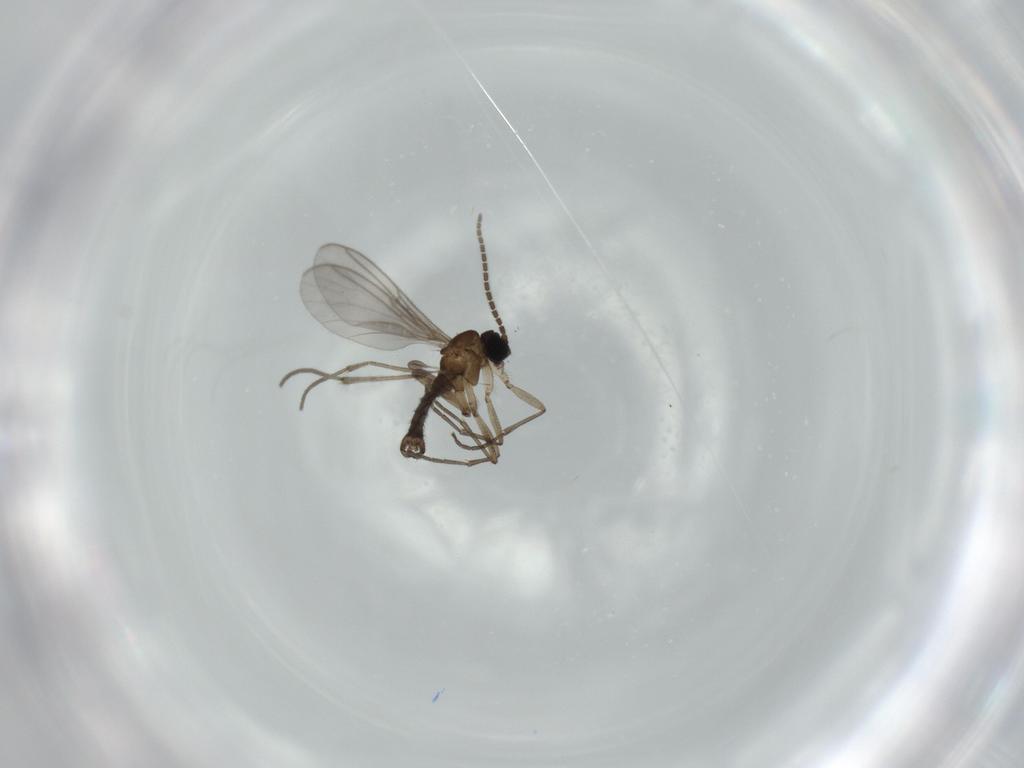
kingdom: Animalia
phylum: Arthropoda
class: Insecta
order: Diptera
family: Sciaridae
